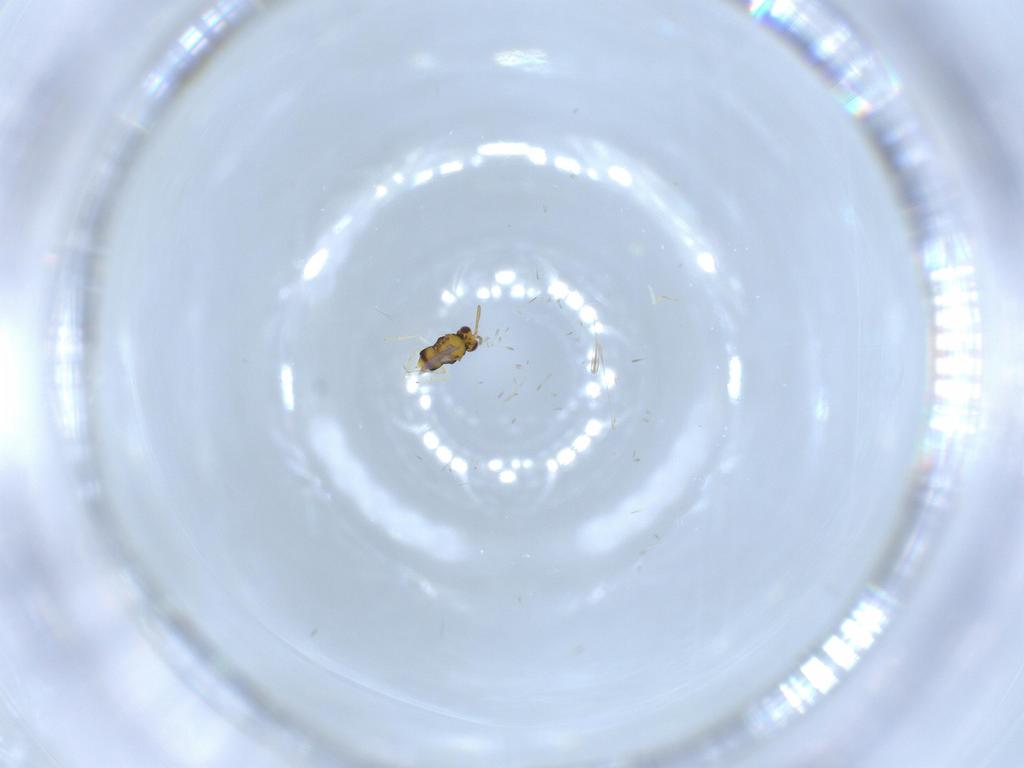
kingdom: Animalia
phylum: Arthropoda
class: Insecta
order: Hymenoptera
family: Aphelinidae
